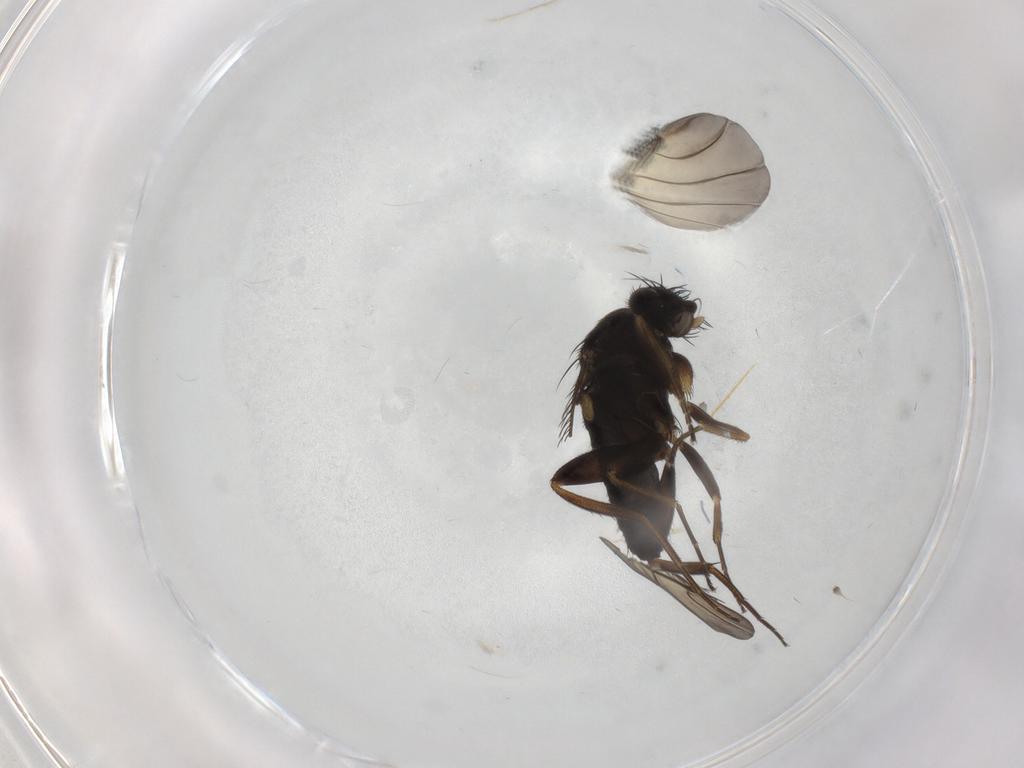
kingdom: Animalia
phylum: Arthropoda
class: Insecta
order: Diptera
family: Cecidomyiidae
